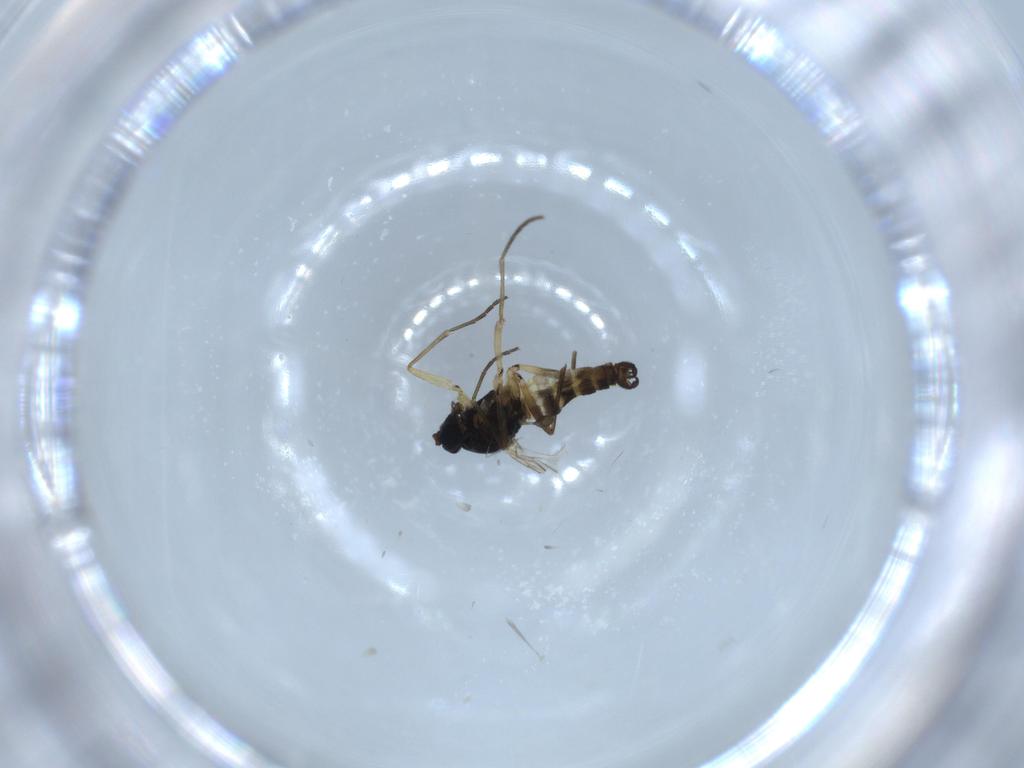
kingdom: Animalia
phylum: Arthropoda
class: Insecta
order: Diptera
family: Sciaridae
